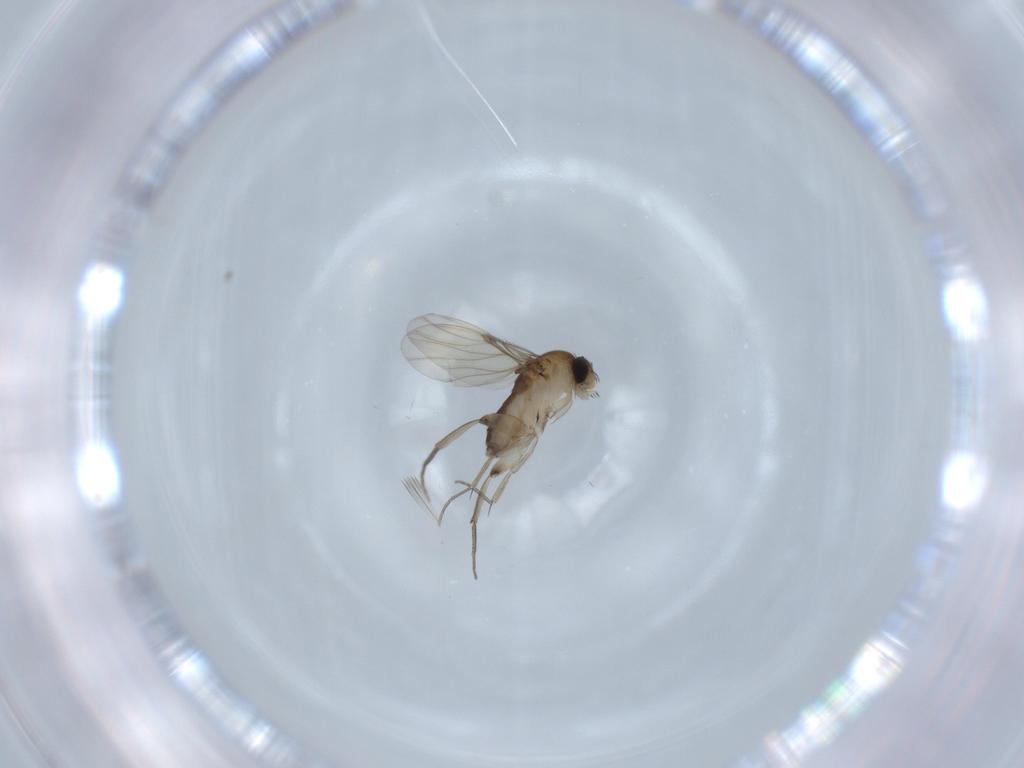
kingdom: Animalia
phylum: Arthropoda
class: Insecta
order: Diptera
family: Phoridae
